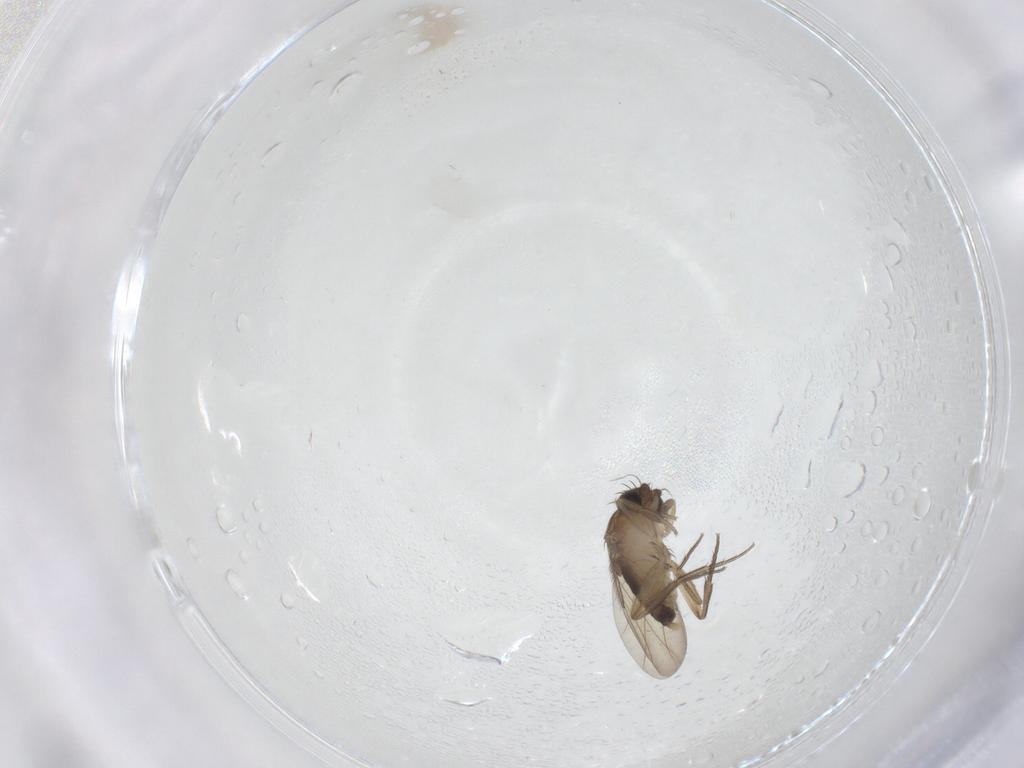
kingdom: Animalia
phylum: Arthropoda
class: Insecta
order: Diptera
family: Phoridae
